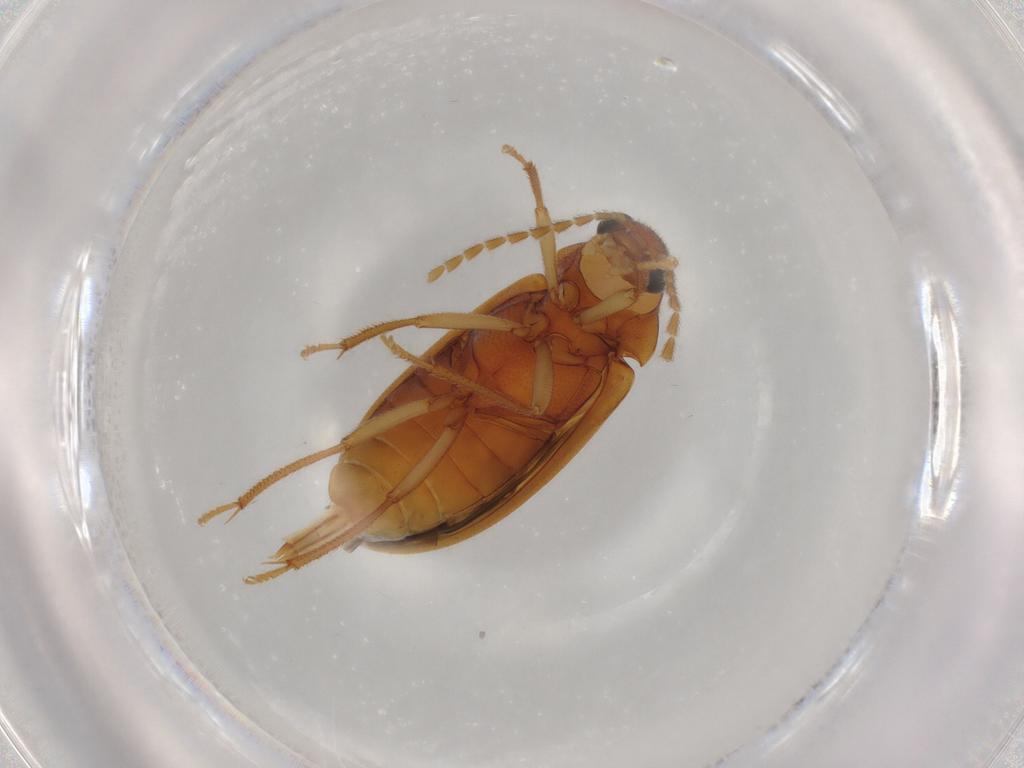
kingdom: Animalia
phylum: Arthropoda
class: Insecta
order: Coleoptera
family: Ptilodactylidae
